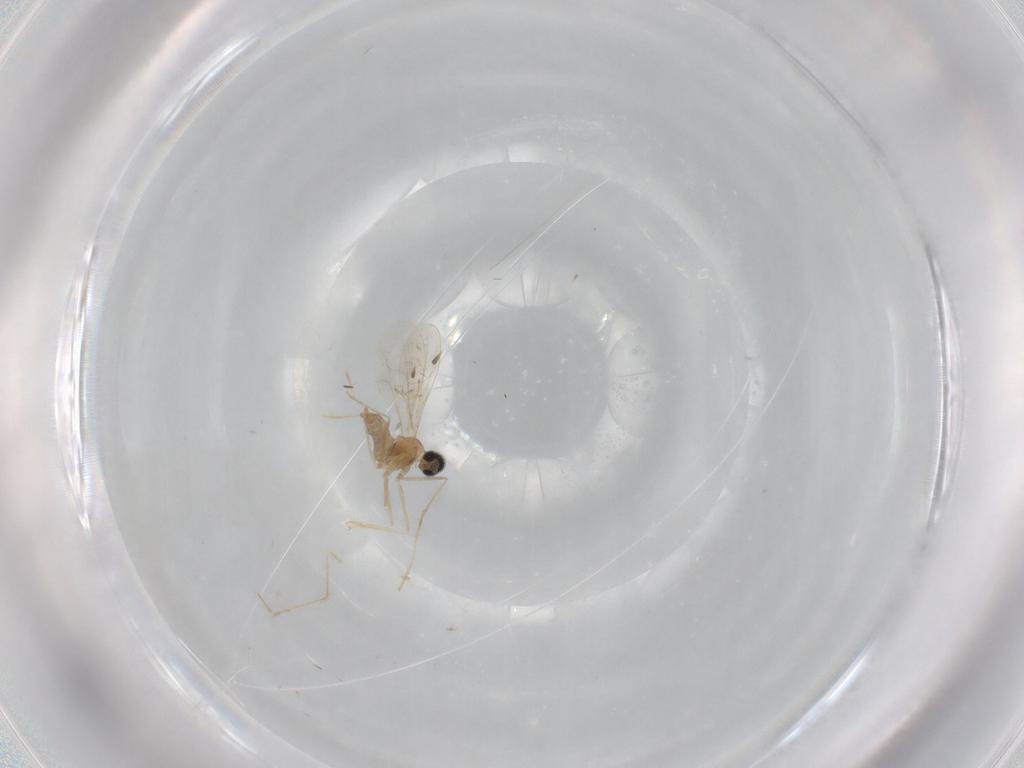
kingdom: Animalia
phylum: Arthropoda
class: Insecta
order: Diptera
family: Cecidomyiidae
